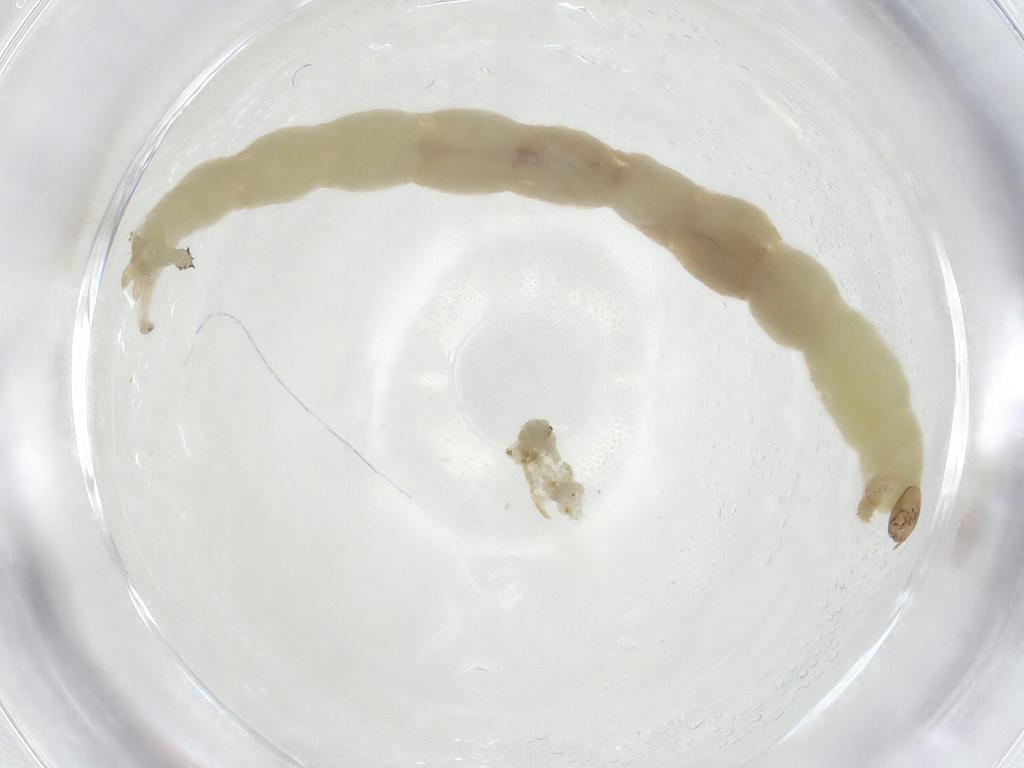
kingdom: Animalia
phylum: Arthropoda
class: Insecta
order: Diptera
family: Chironomidae
